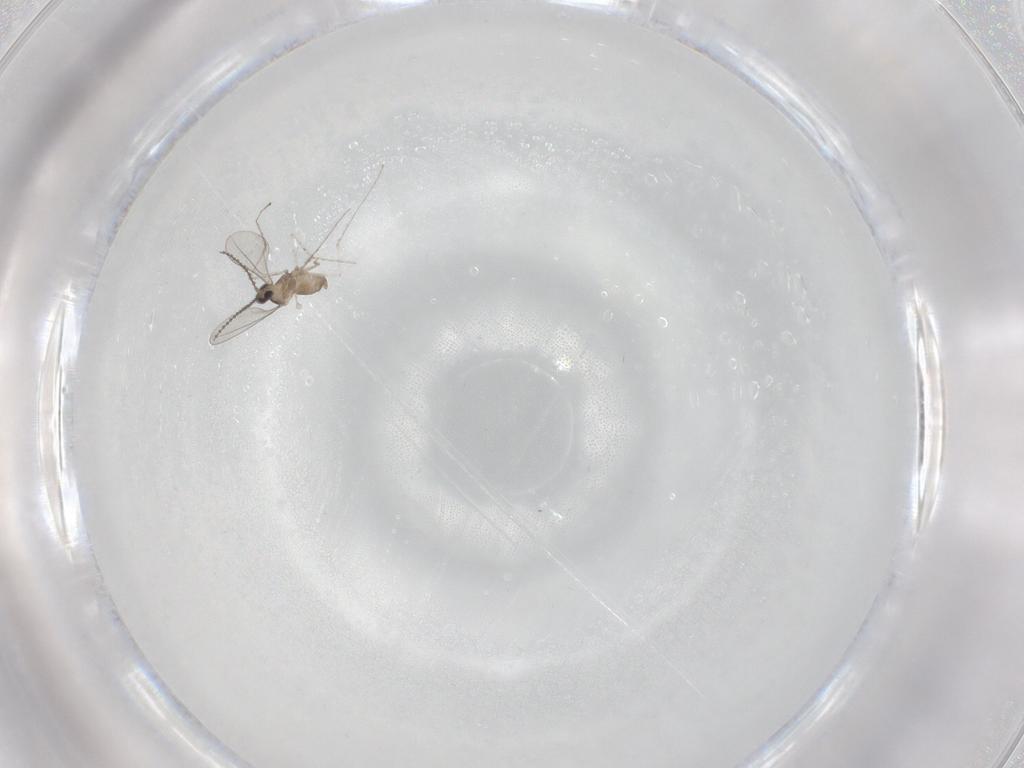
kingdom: Animalia
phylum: Arthropoda
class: Insecta
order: Diptera
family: Cecidomyiidae
